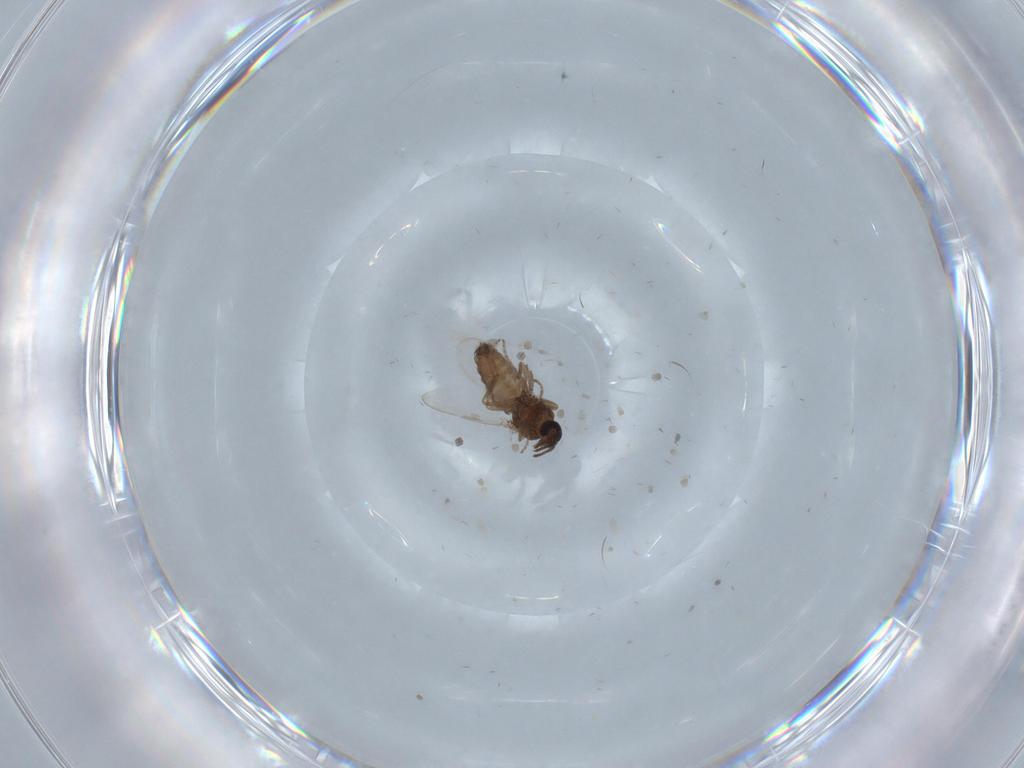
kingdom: Animalia
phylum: Arthropoda
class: Insecta
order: Diptera
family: Ceratopogonidae
